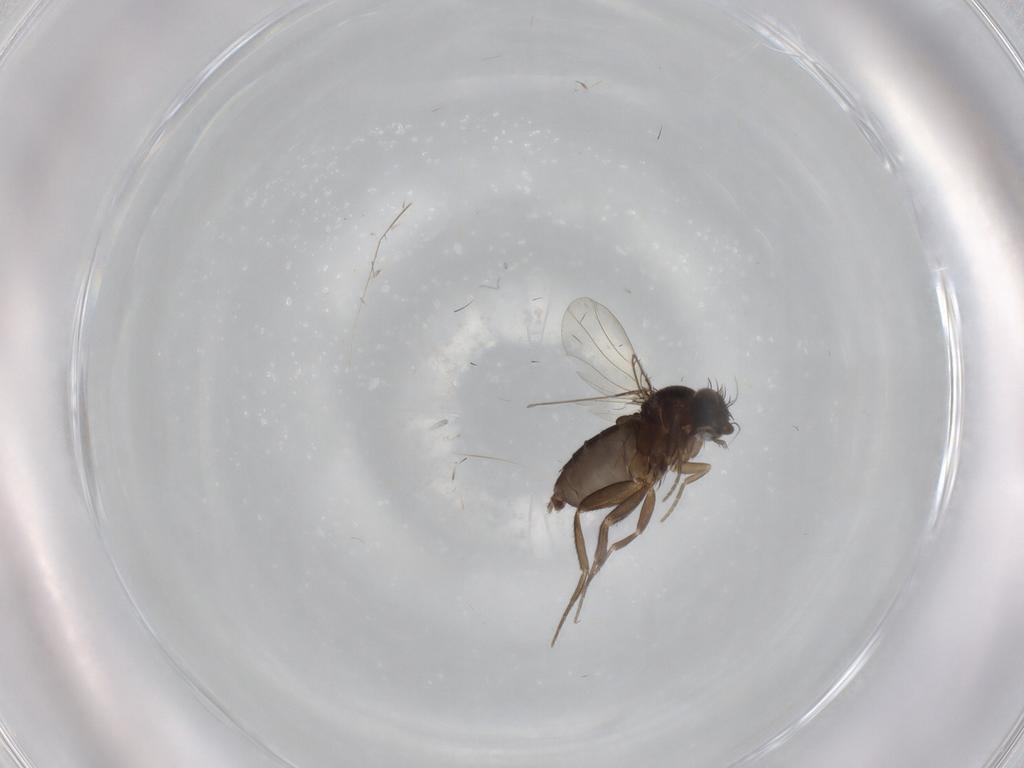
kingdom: Animalia
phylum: Arthropoda
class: Insecta
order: Diptera
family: Phoridae
